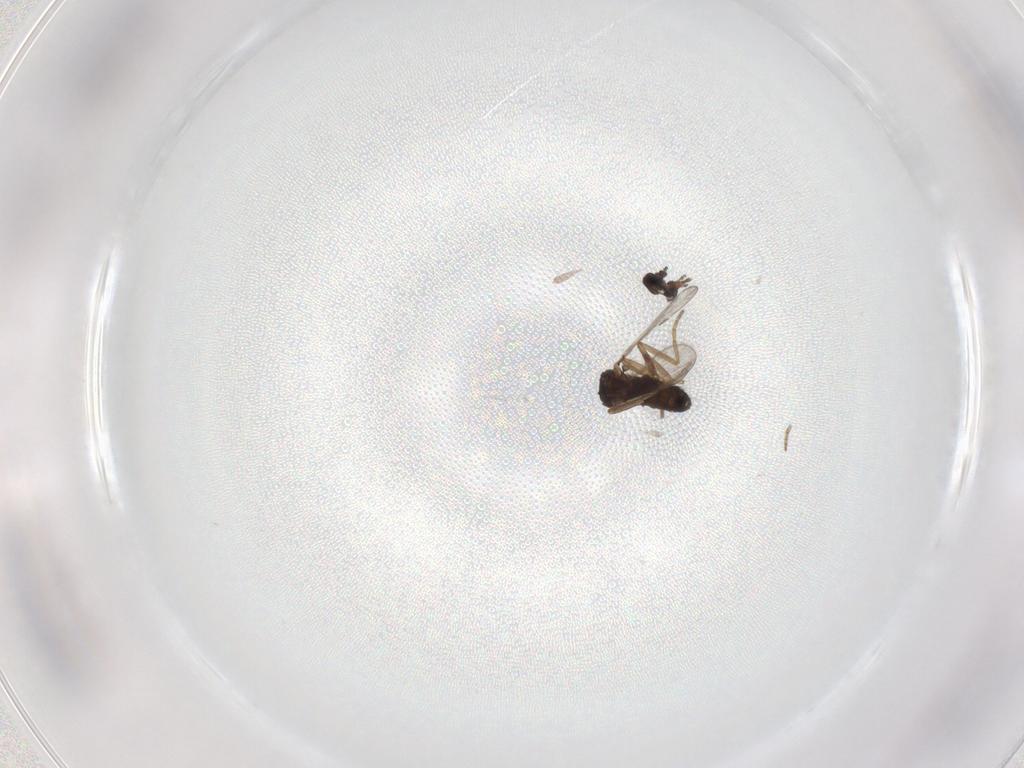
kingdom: Animalia
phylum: Arthropoda
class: Insecta
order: Diptera
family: Ceratopogonidae
